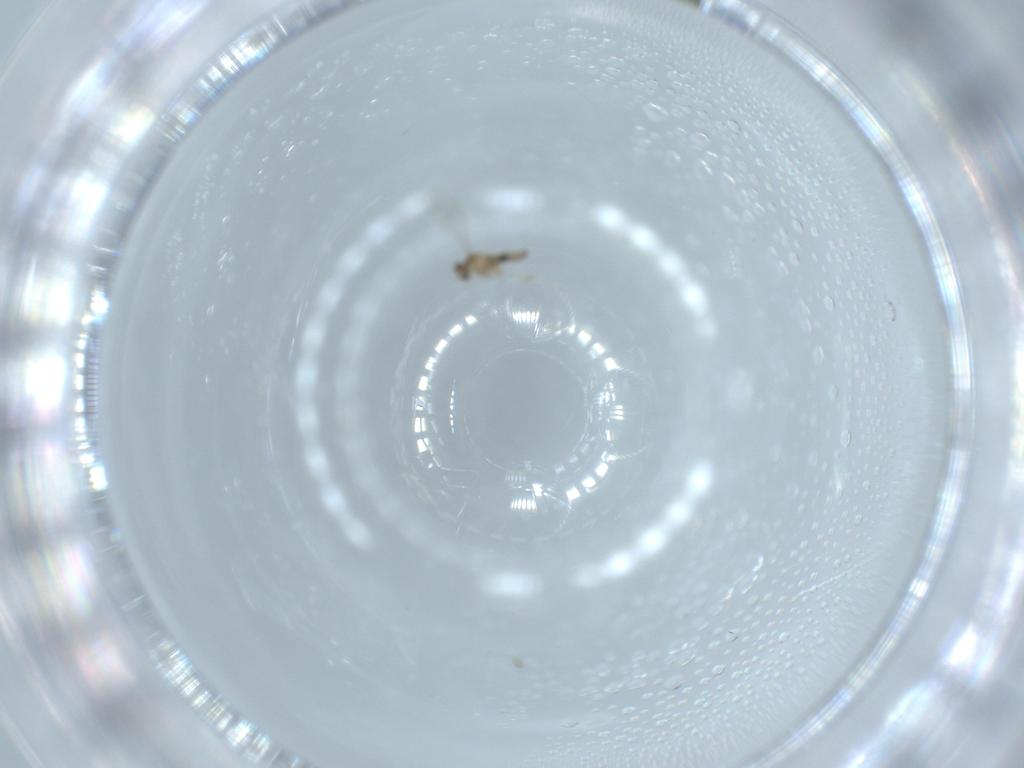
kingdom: Animalia
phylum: Arthropoda
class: Insecta
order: Diptera
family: Cecidomyiidae
